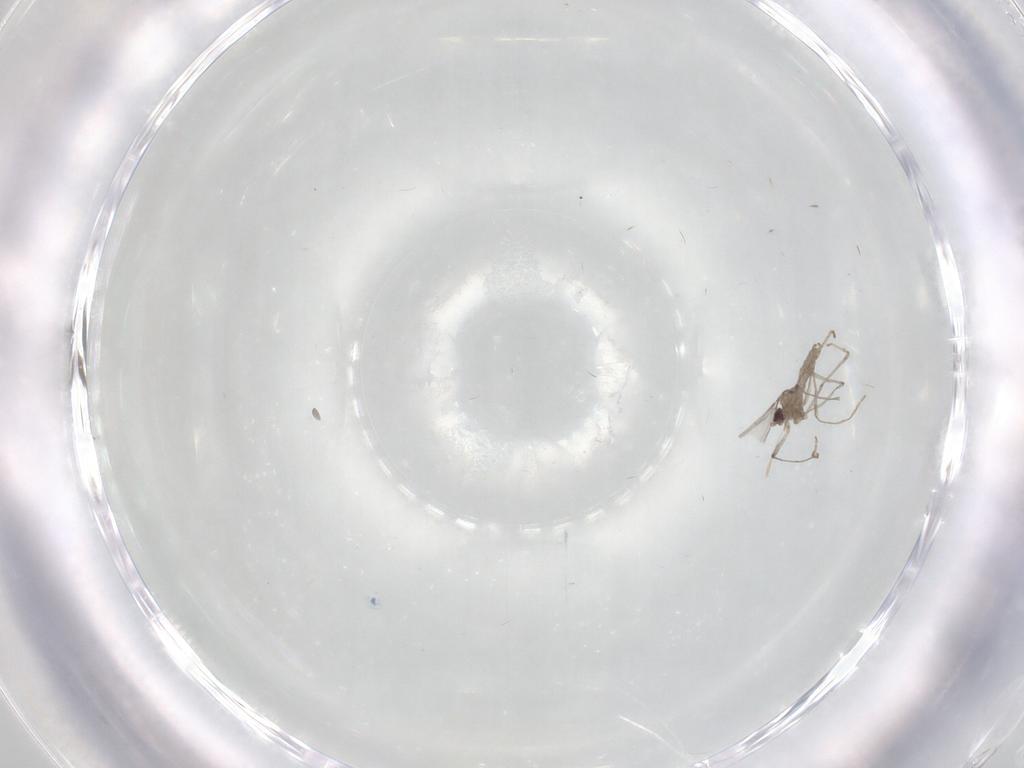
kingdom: Animalia
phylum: Arthropoda
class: Insecta
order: Diptera
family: Cecidomyiidae
